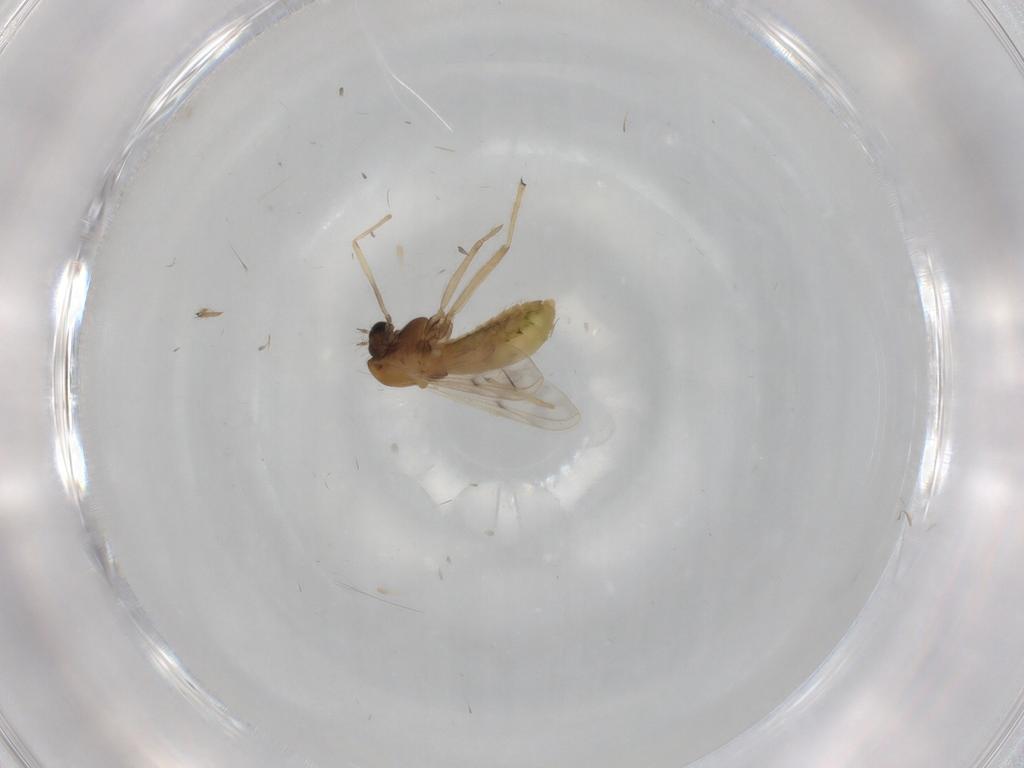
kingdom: Animalia
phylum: Arthropoda
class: Insecta
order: Diptera
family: Chironomidae
